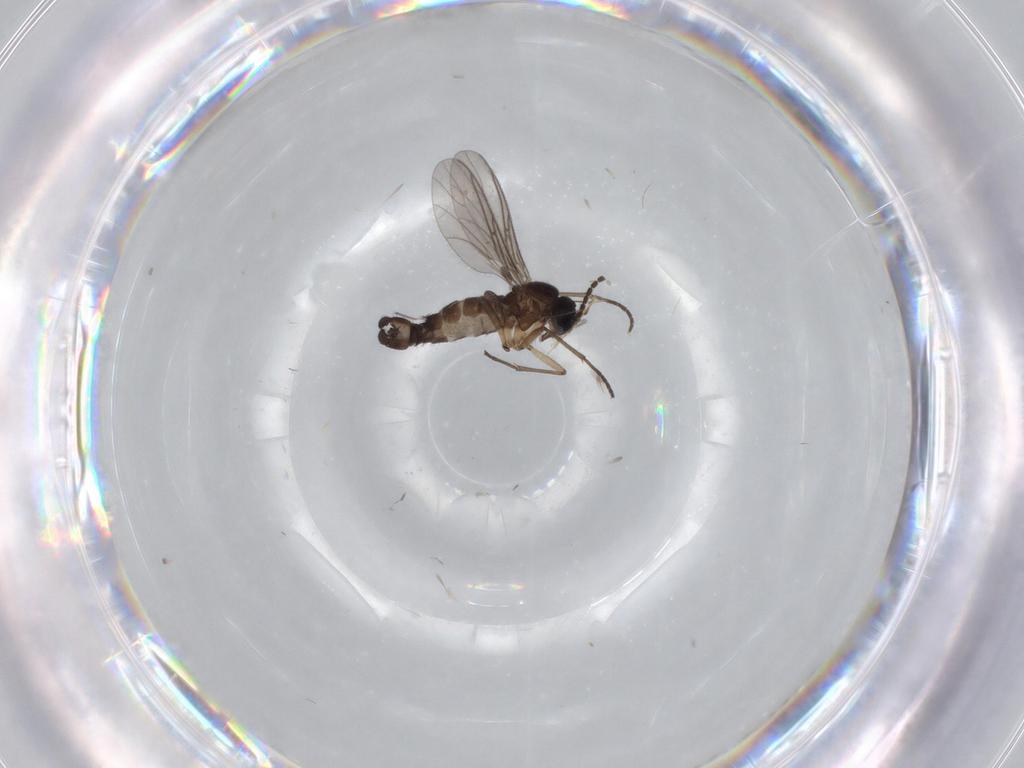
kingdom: Animalia
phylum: Arthropoda
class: Insecta
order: Diptera
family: Sciaridae
